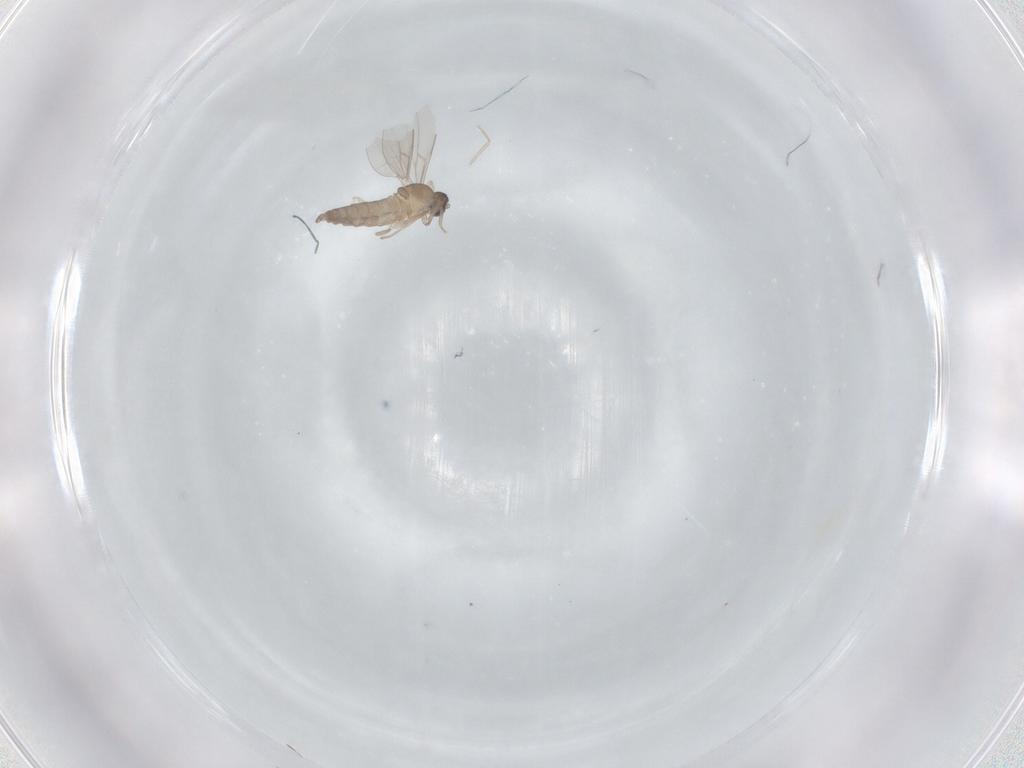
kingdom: Animalia
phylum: Arthropoda
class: Insecta
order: Diptera
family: Cecidomyiidae
